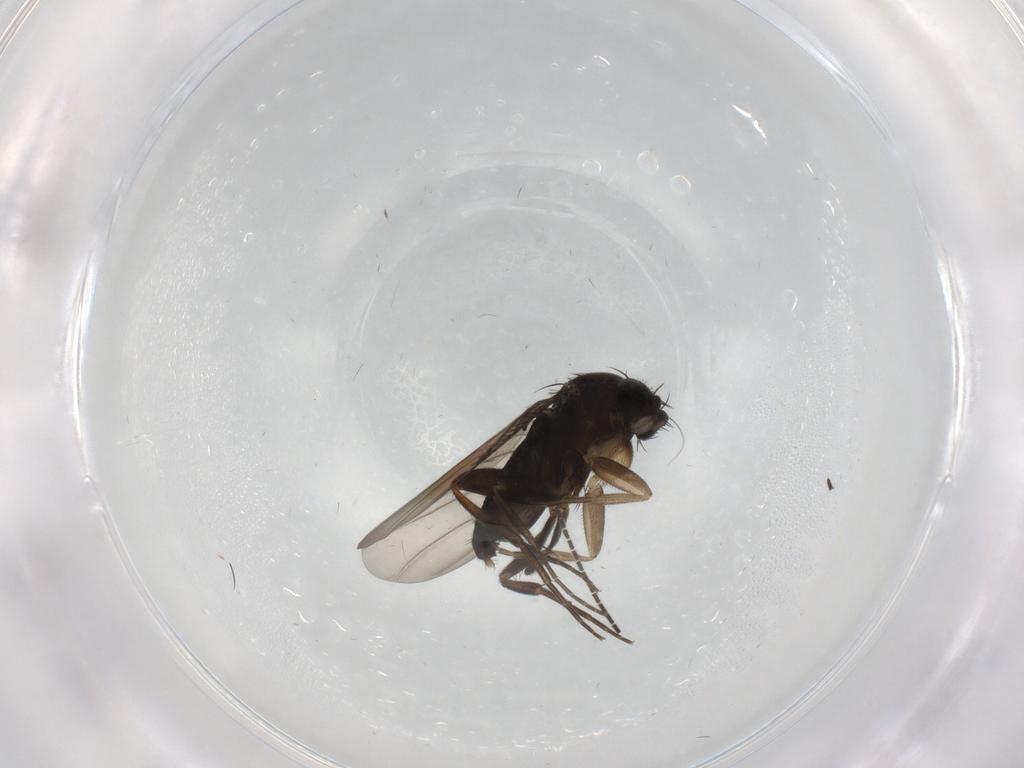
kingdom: Animalia
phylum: Arthropoda
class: Insecta
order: Diptera
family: Phoridae
